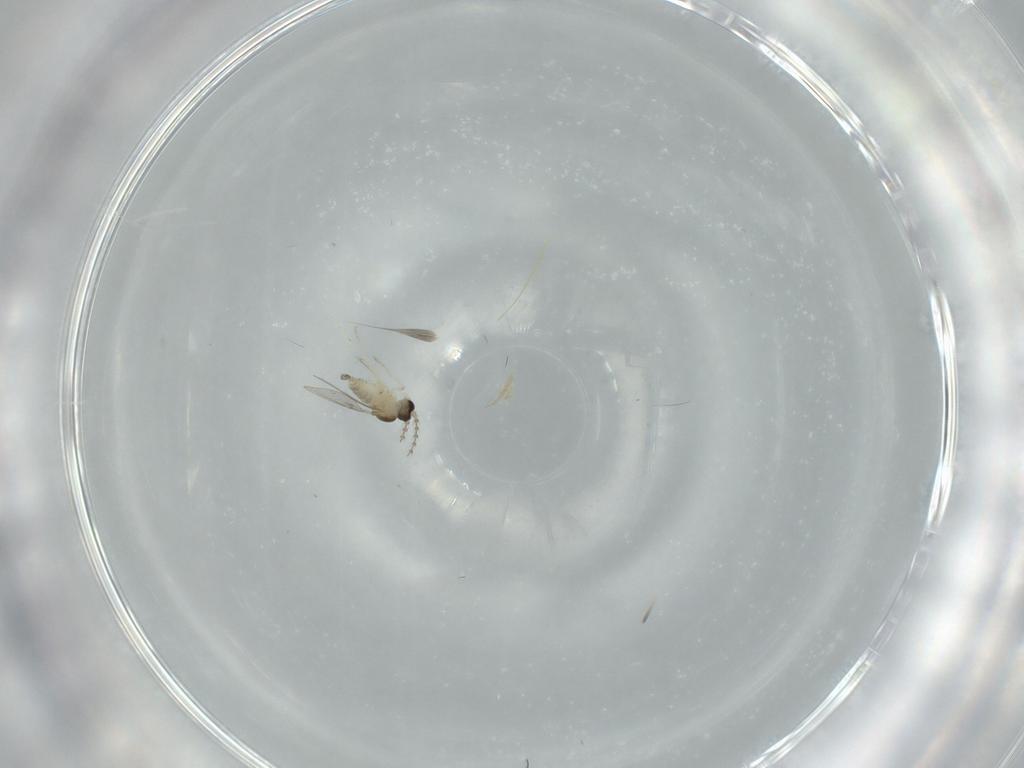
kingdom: Animalia
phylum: Arthropoda
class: Insecta
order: Diptera
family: Cecidomyiidae
